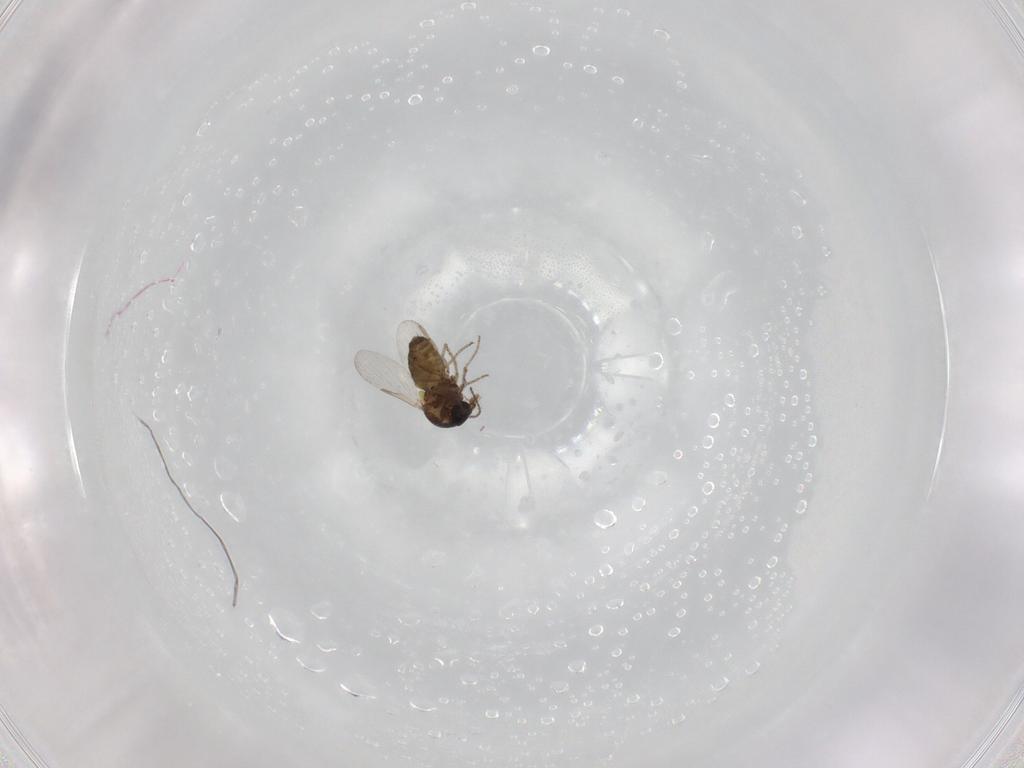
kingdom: Animalia
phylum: Arthropoda
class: Insecta
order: Diptera
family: Ceratopogonidae
